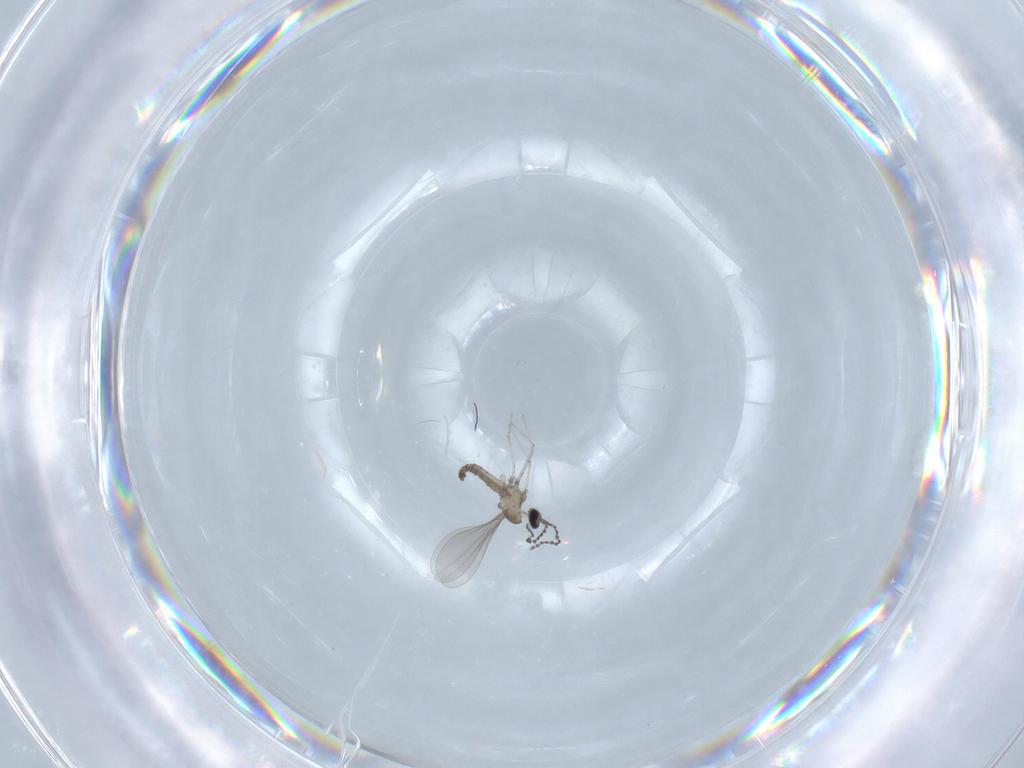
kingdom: Animalia
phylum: Arthropoda
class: Insecta
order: Diptera
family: Cecidomyiidae
